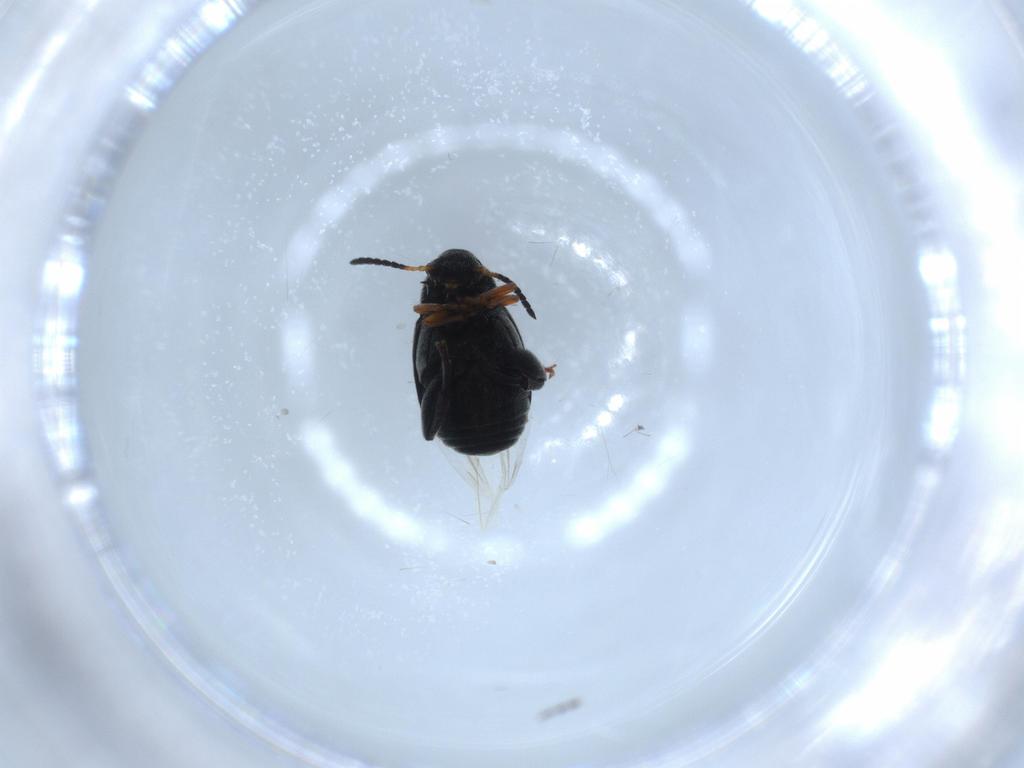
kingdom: Animalia
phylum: Arthropoda
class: Insecta
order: Coleoptera
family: Chrysomelidae
